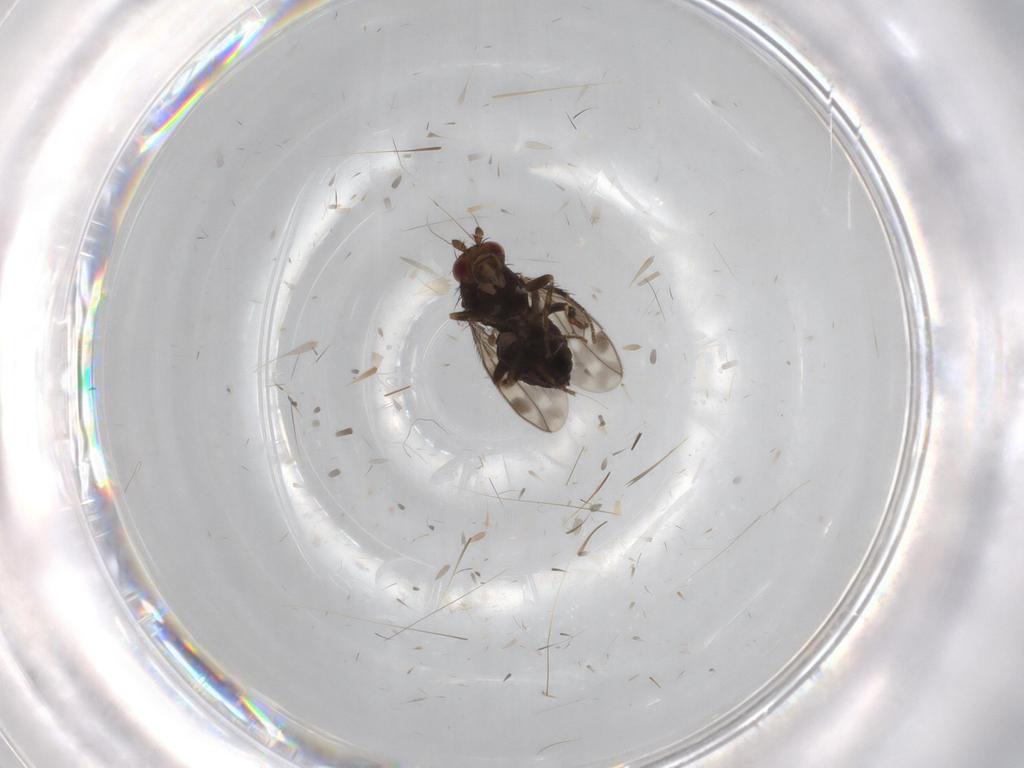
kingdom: Animalia
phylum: Arthropoda
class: Insecta
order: Diptera
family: Sphaeroceridae
